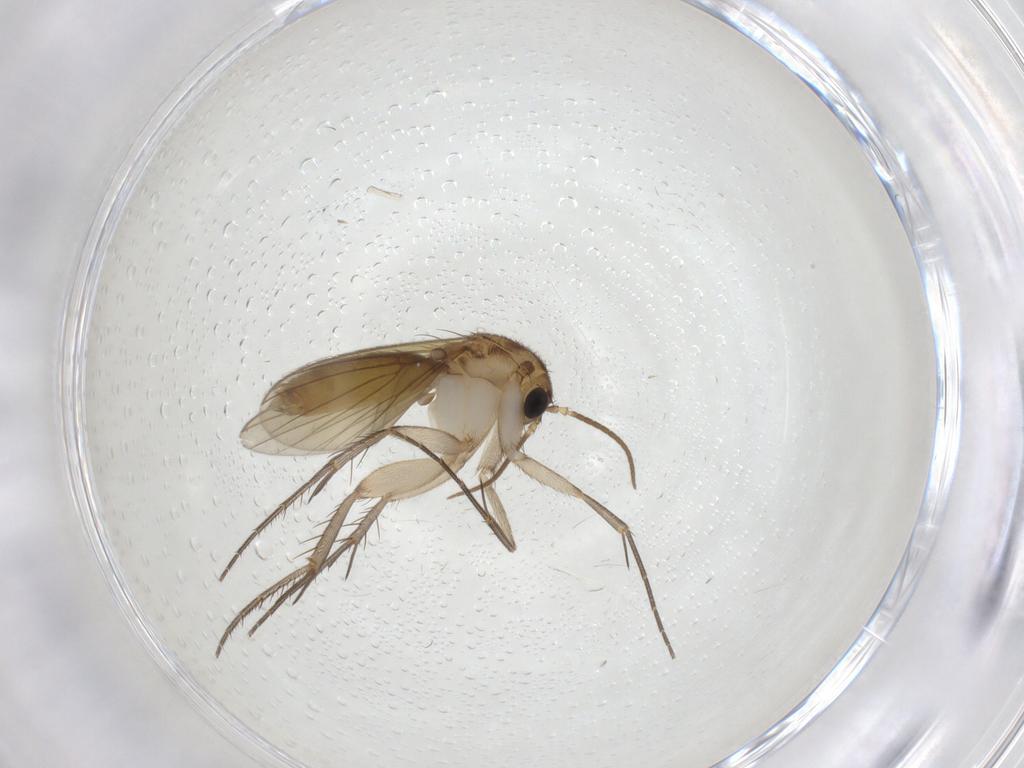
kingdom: Animalia
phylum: Arthropoda
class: Insecta
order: Diptera
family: Mycetophilidae
